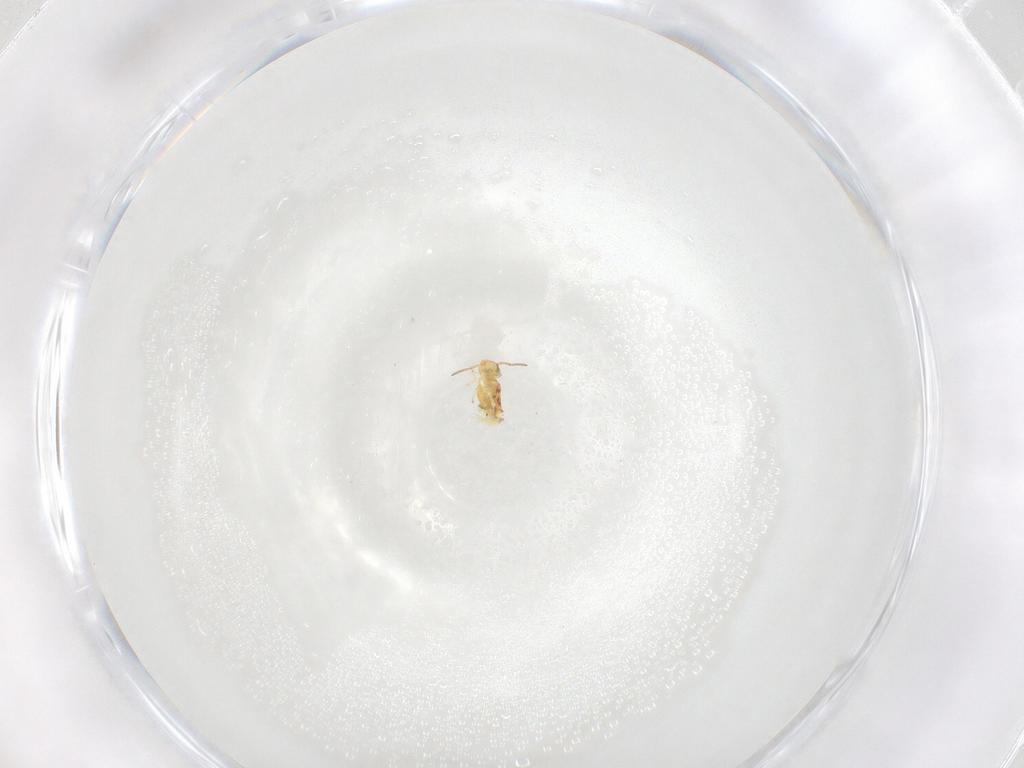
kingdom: Animalia
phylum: Arthropoda
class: Collembola
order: Symphypleona
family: Bourletiellidae
